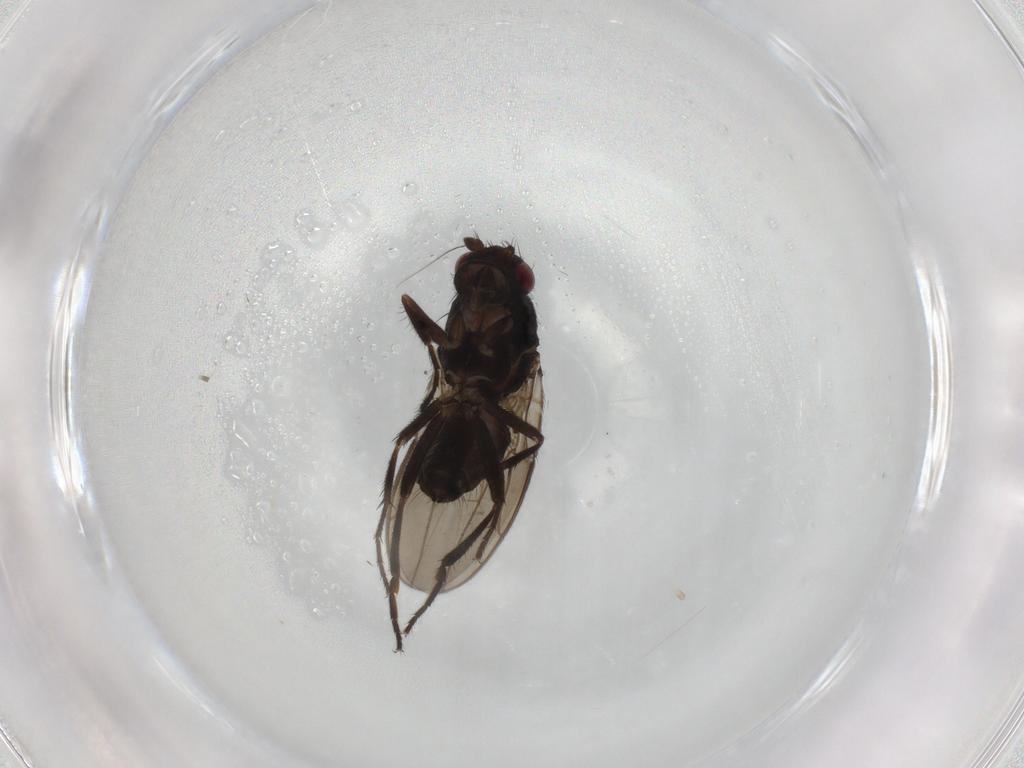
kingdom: Animalia
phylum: Arthropoda
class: Insecta
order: Diptera
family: Sphaeroceridae
